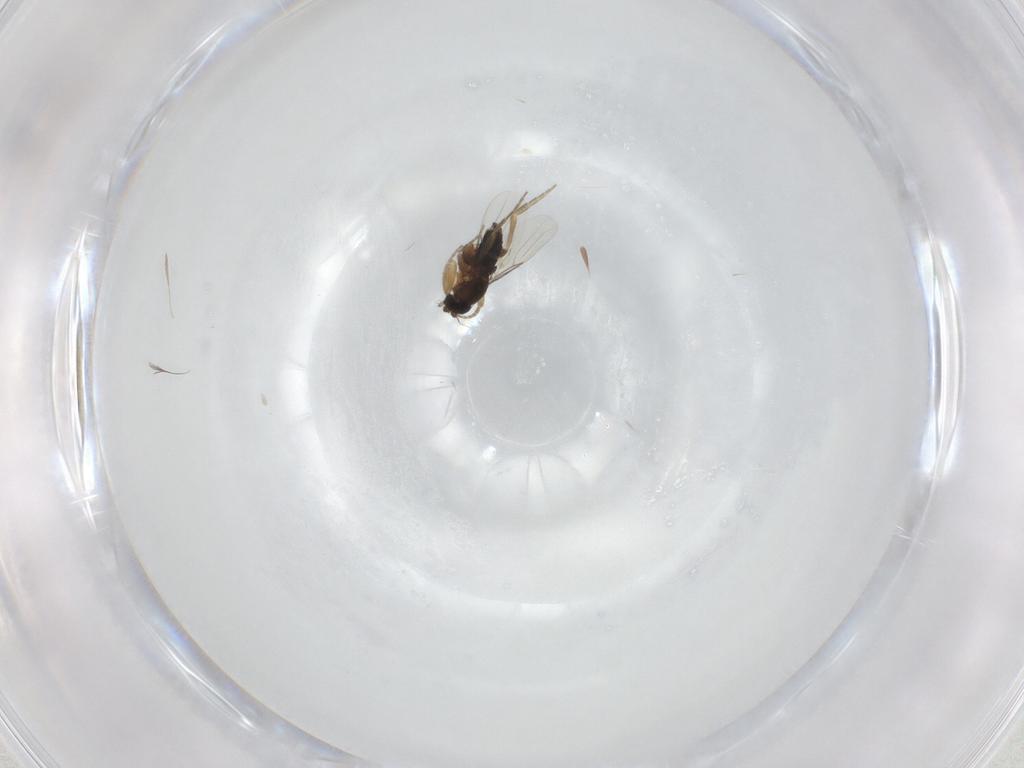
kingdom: Animalia
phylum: Arthropoda
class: Insecta
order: Diptera
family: Phoridae
